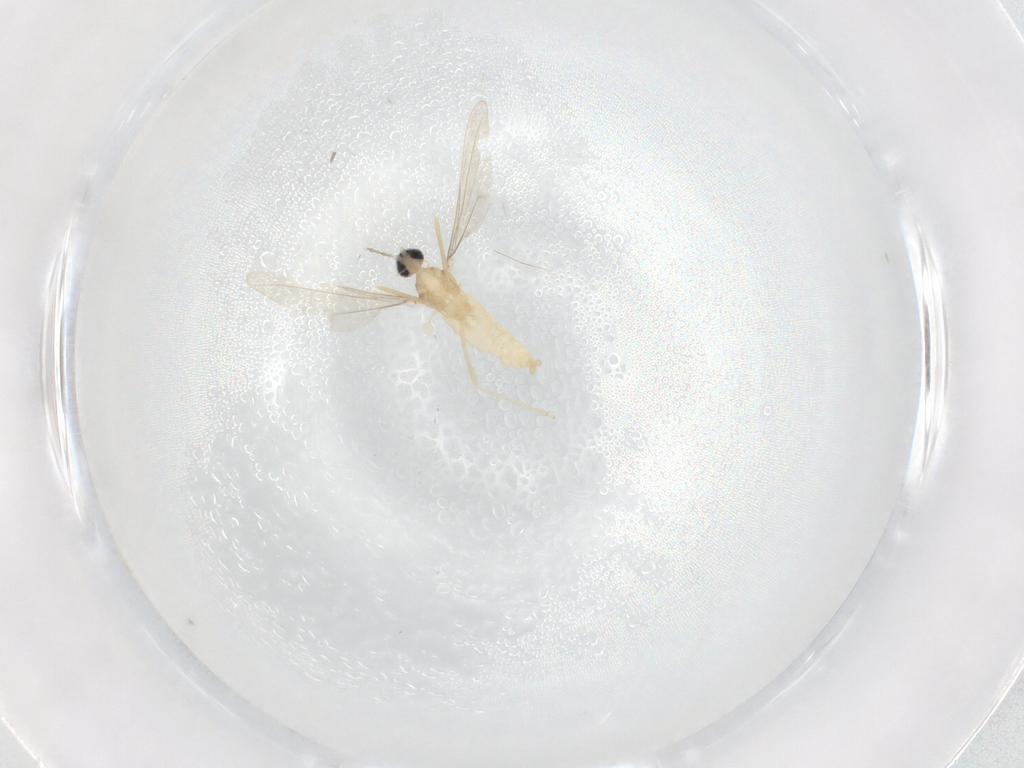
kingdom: Animalia
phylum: Arthropoda
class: Insecta
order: Diptera
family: Cecidomyiidae
